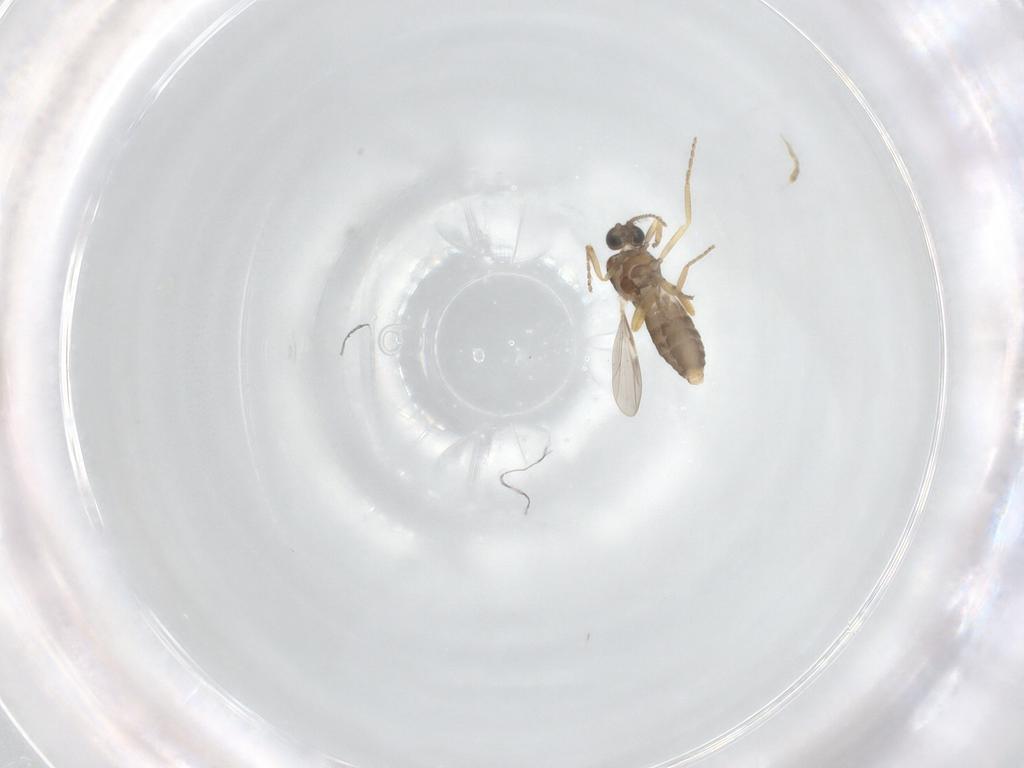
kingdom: Animalia
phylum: Arthropoda
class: Insecta
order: Diptera
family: Ceratopogonidae
